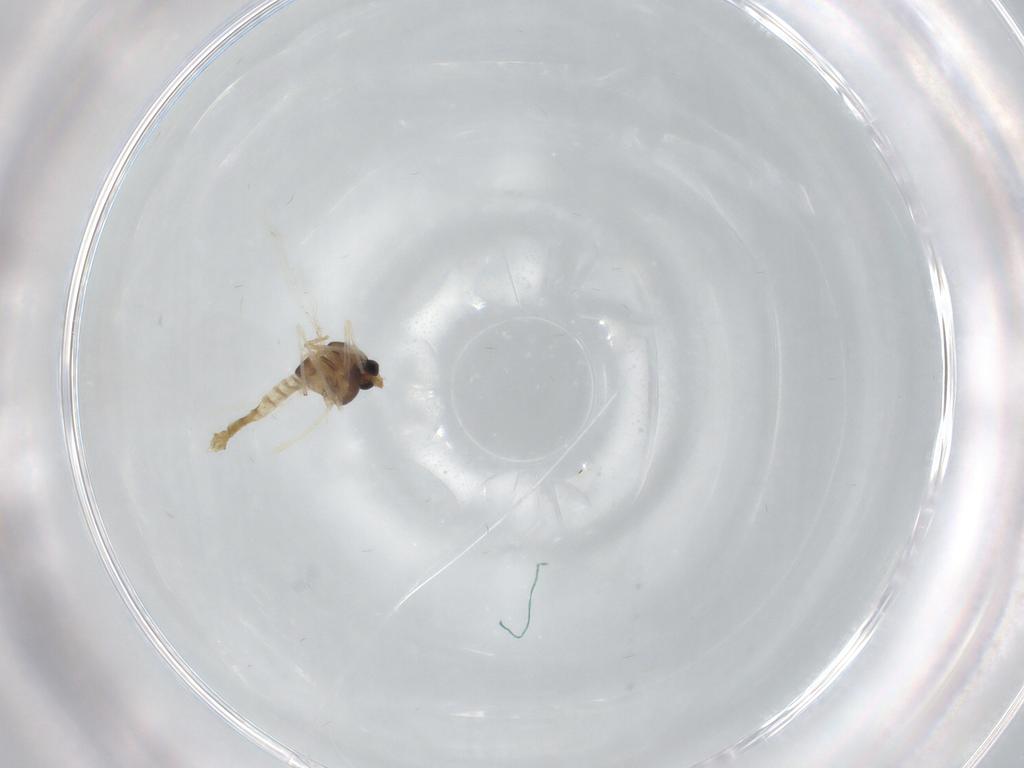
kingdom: Animalia
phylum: Arthropoda
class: Insecta
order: Diptera
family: Chironomidae
